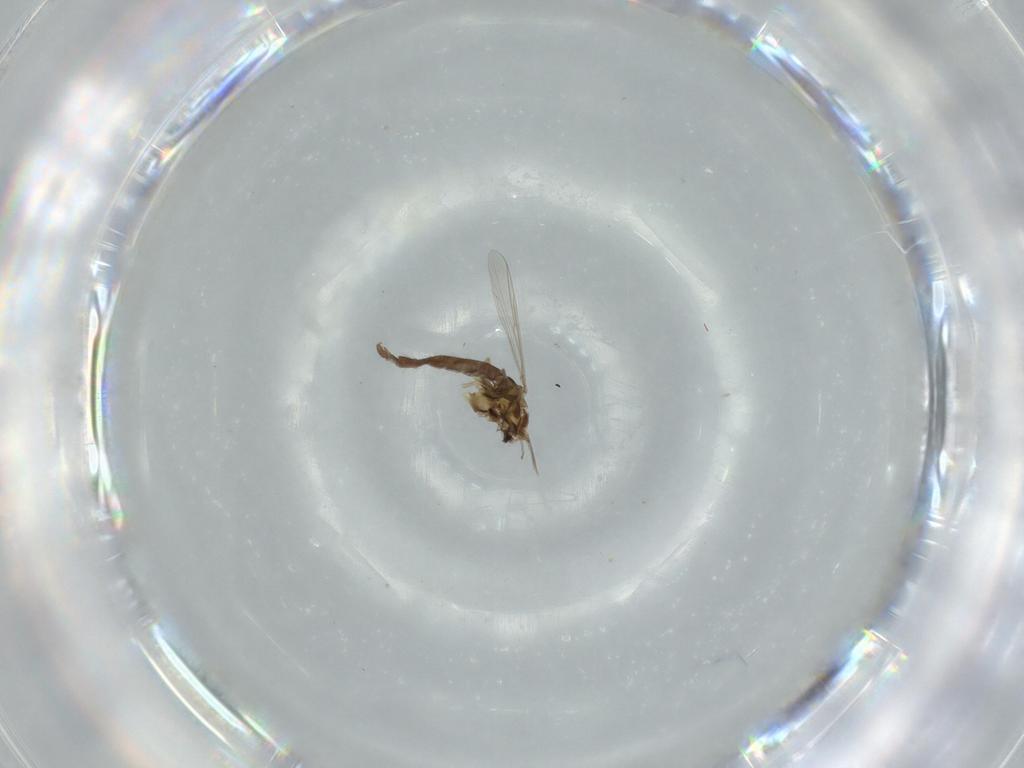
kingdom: Animalia
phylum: Arthropoda
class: Insecta
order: Diptera
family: Chironomidae
